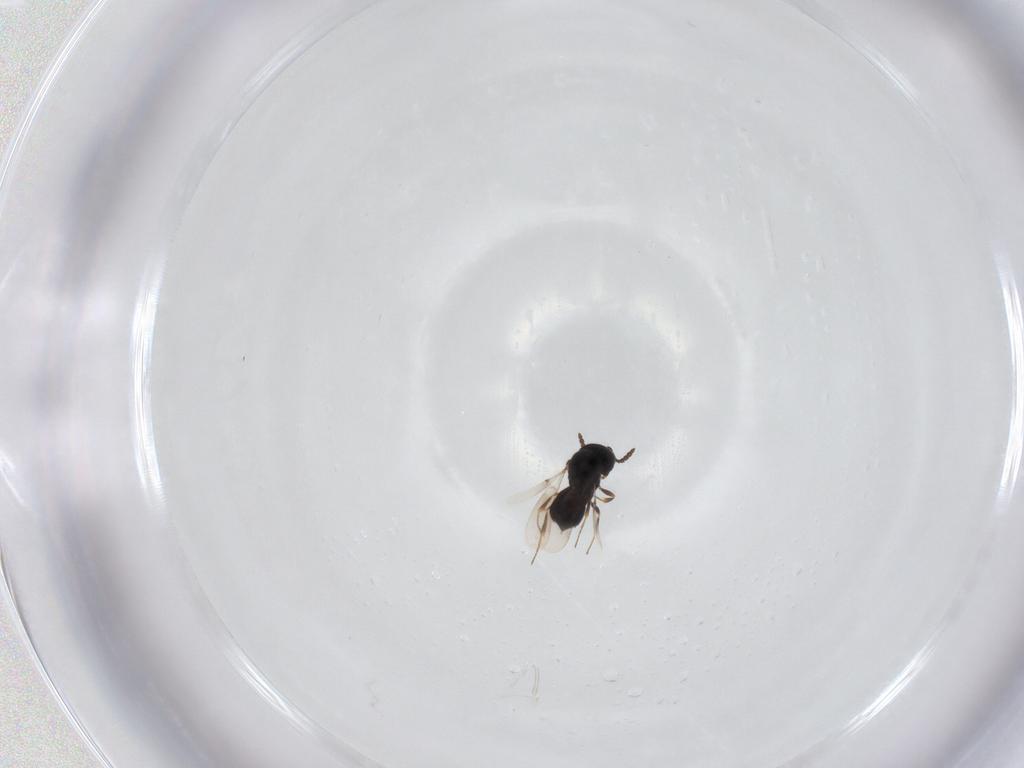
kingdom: Animalia
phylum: Arthropoda
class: Insecta
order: Hymenoptera
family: Scelionidae
